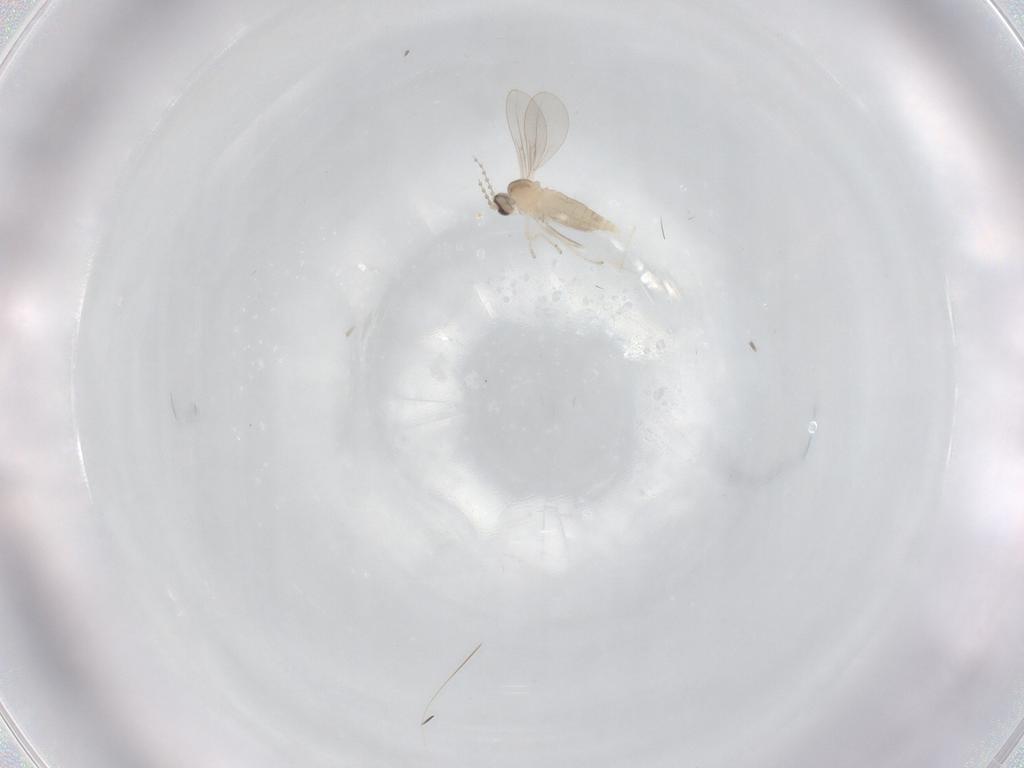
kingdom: Animalia
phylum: Arthropoda
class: Insecta
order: Diptera
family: Cecidomyiidae
